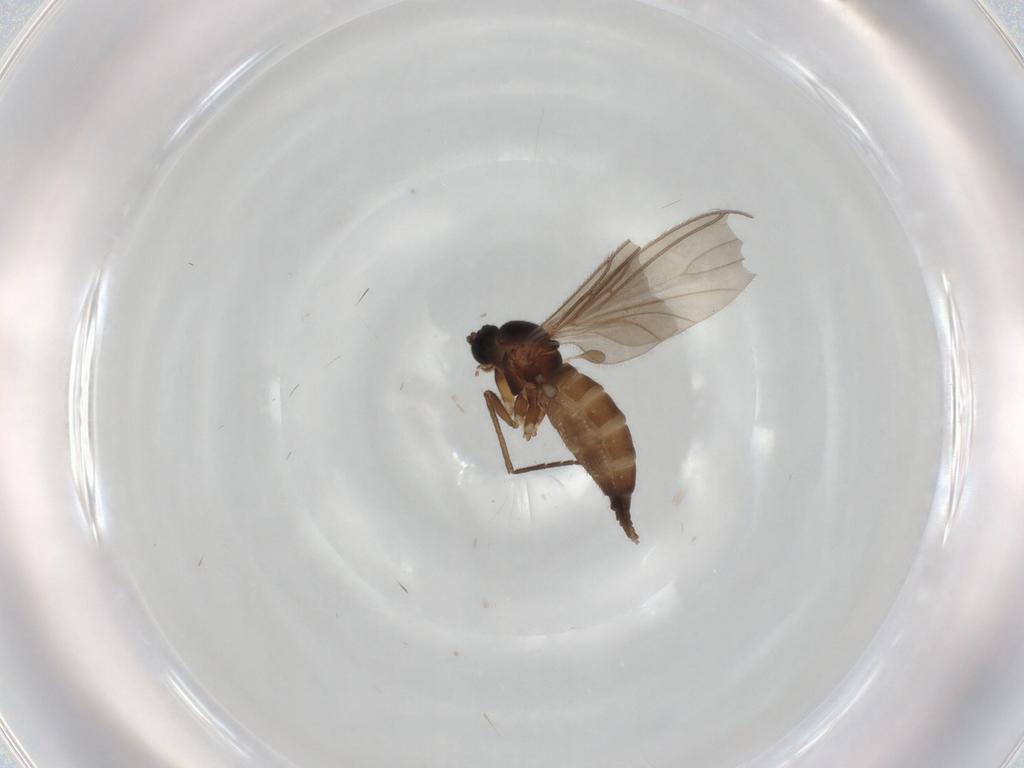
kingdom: Animalia
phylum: Arthropoda
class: Insecta
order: Diptera
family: Sciaridae
